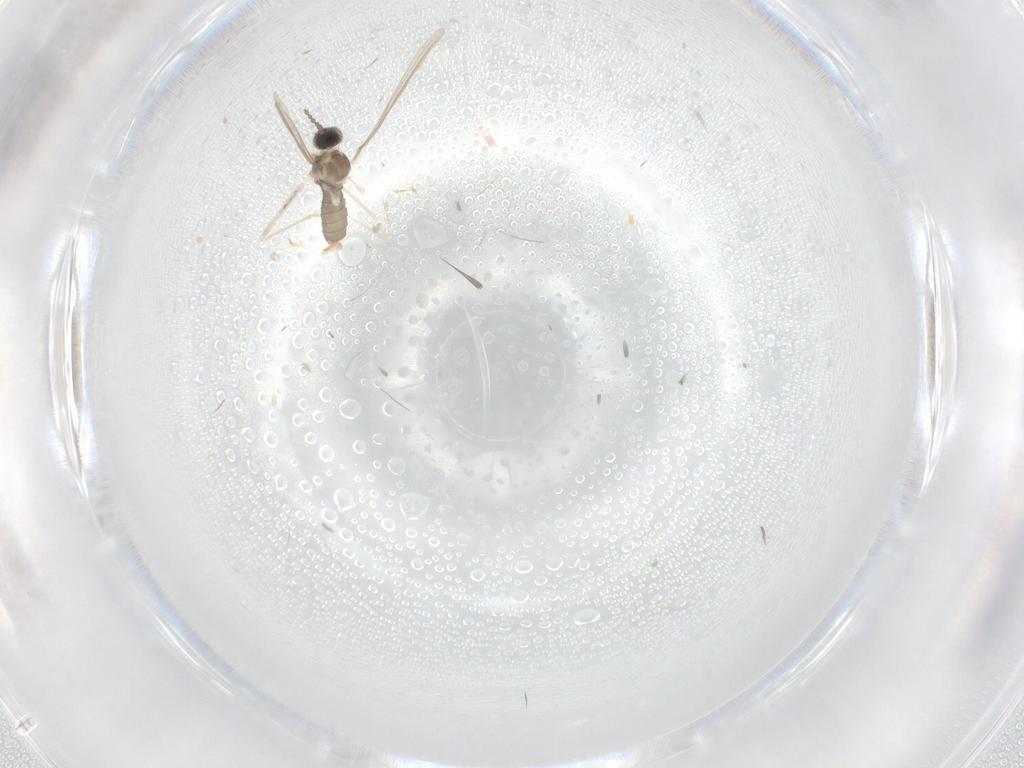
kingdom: Animalia
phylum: Arthropoda
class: Insecta
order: Diptera
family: Cecidomyiidae
